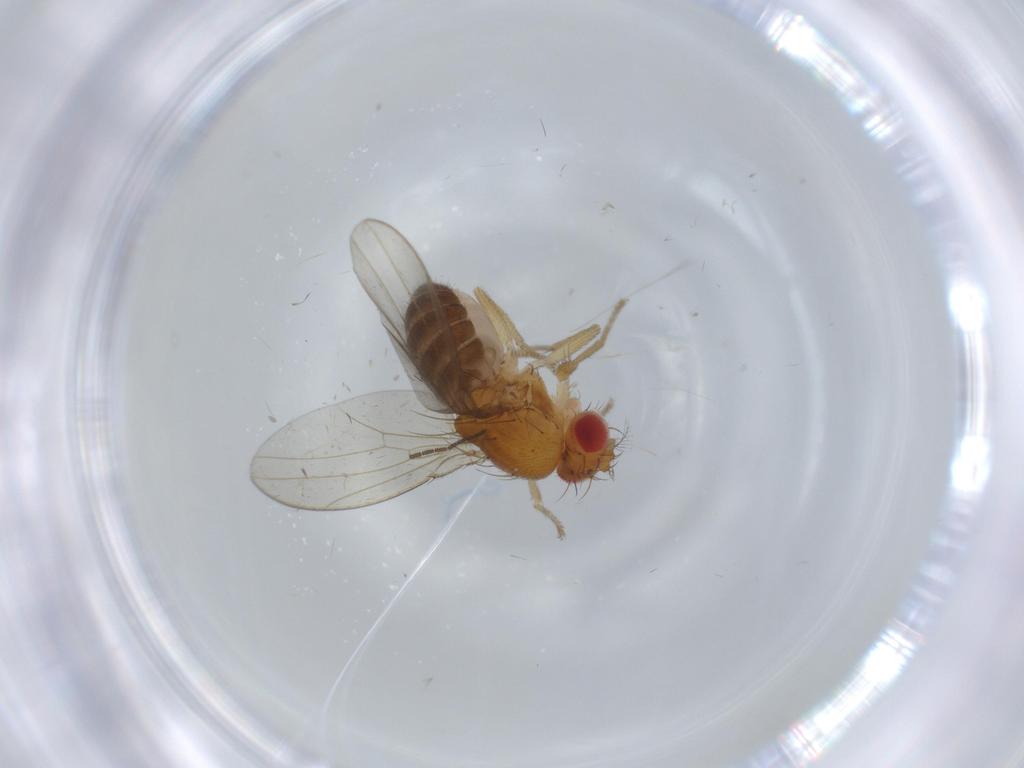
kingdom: Animalia
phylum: Arthropoda
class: Insecta
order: Diptera
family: Drosophilidae
